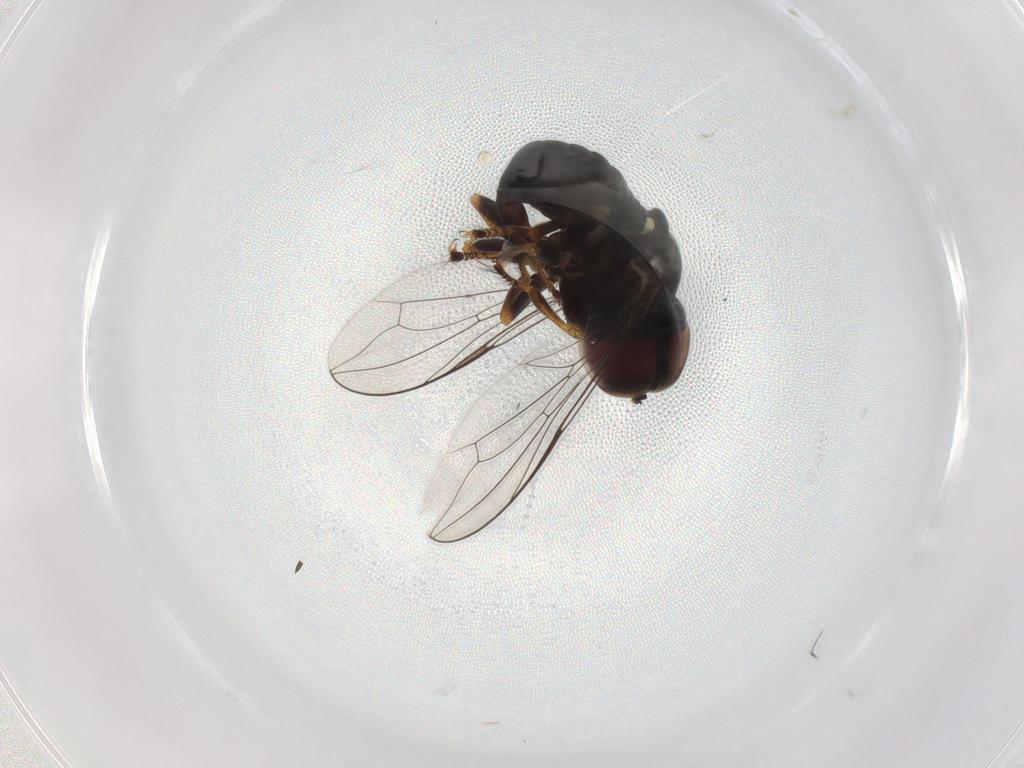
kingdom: Animalia
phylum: Arthropoda
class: Insecta
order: Diptera
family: Pipunculidae
